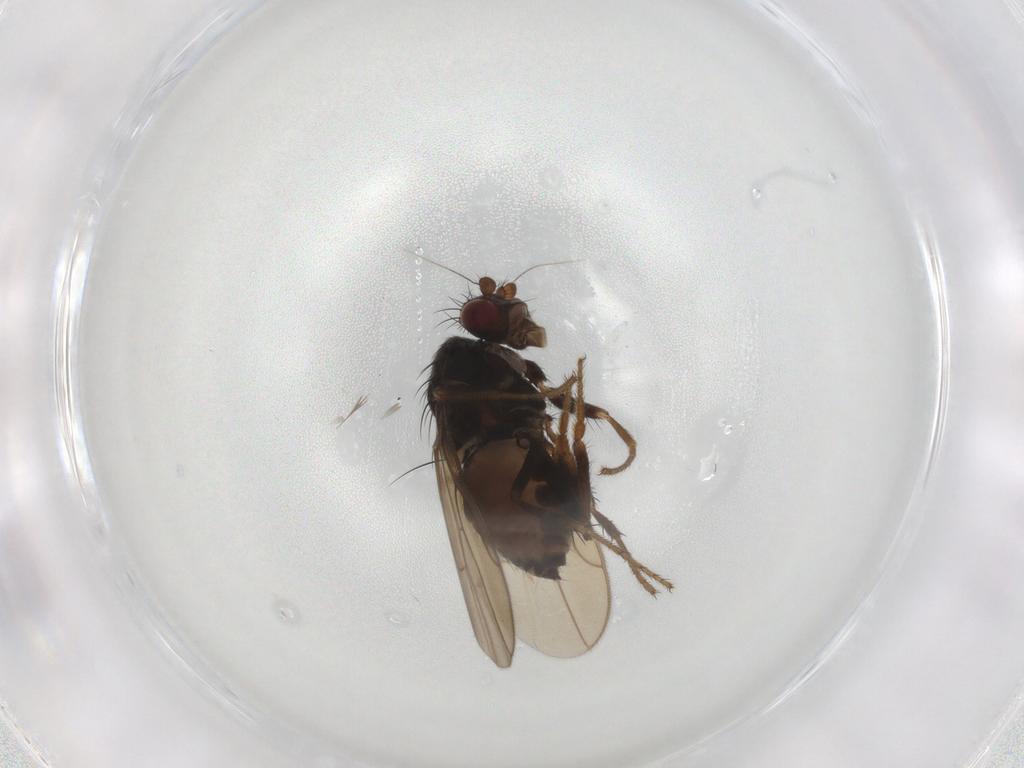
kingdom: Animalia
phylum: Arthropoda
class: Insecta
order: Diptera
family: Sphaeroceridae
